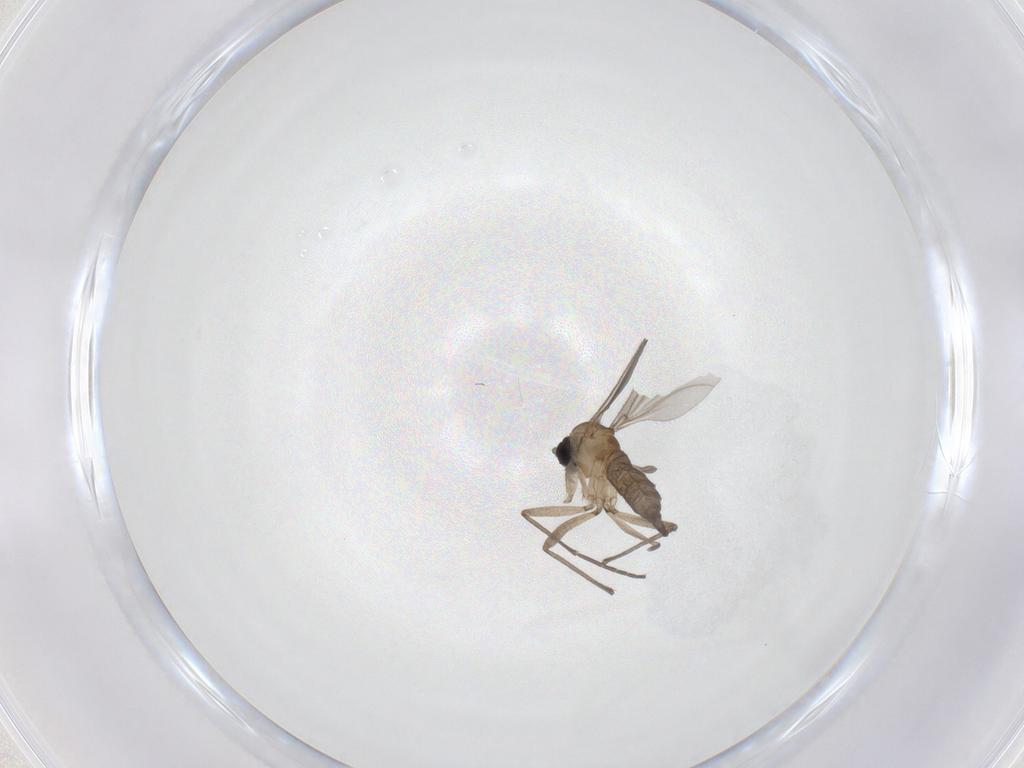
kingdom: Animalia
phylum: Arthropoda
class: Insecta
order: Diptera
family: Sciaridae
